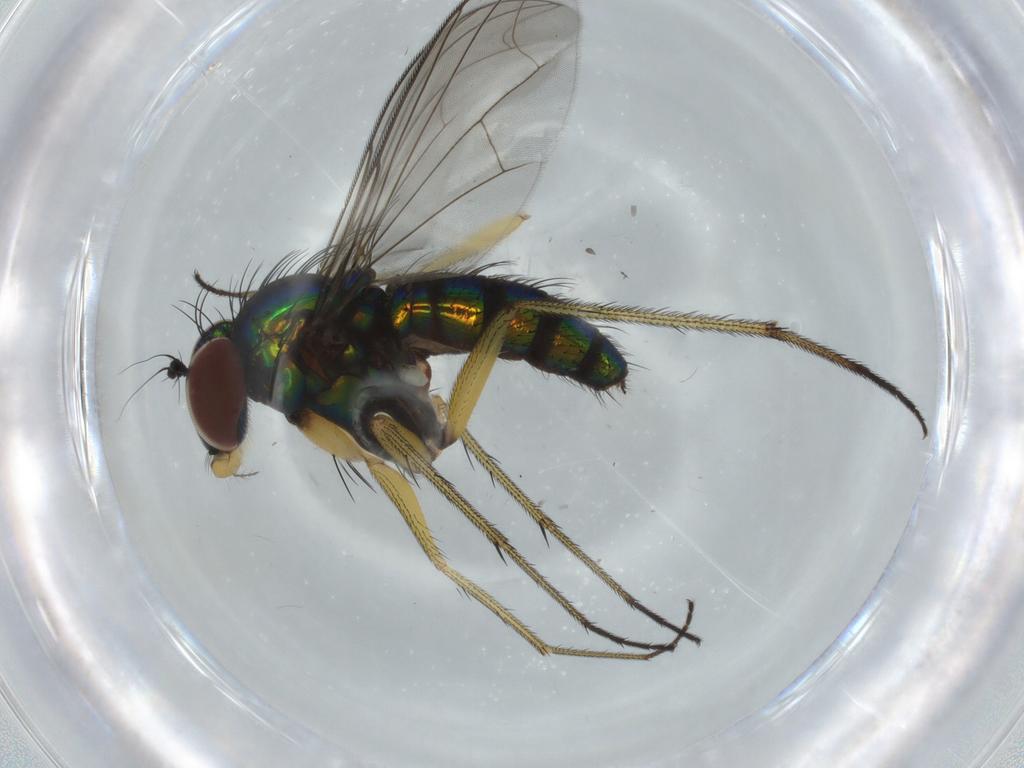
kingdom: Animalia
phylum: Arthropoda
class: Insecta
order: Diptera
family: Dolichopodidae
